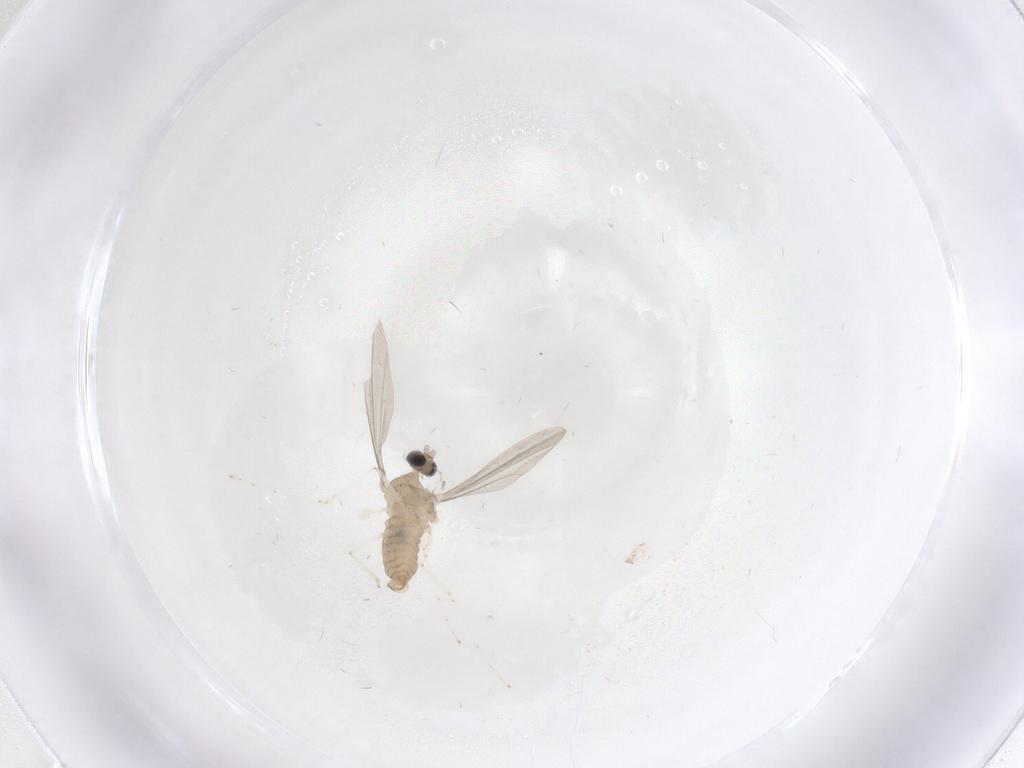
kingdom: Animalia
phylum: Arthropoda
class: Insecta
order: Diptera
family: Cecidomyiidae
